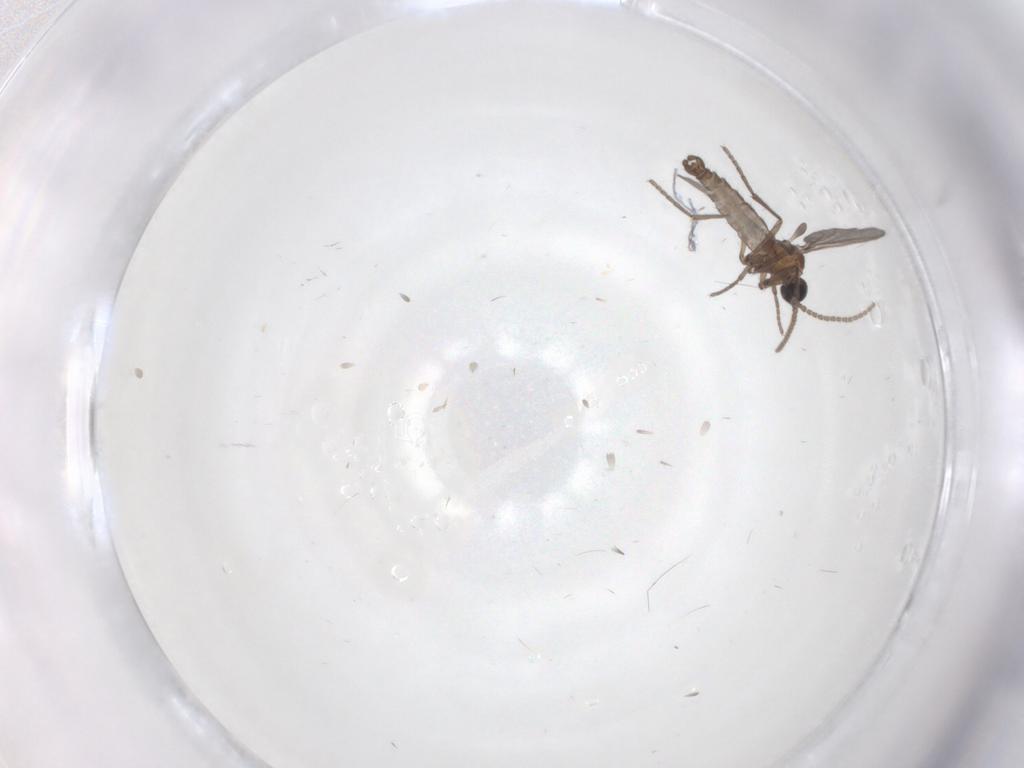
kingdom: Animalia
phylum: Arthropoda
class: Insecta
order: Diptera
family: Sciaridae
